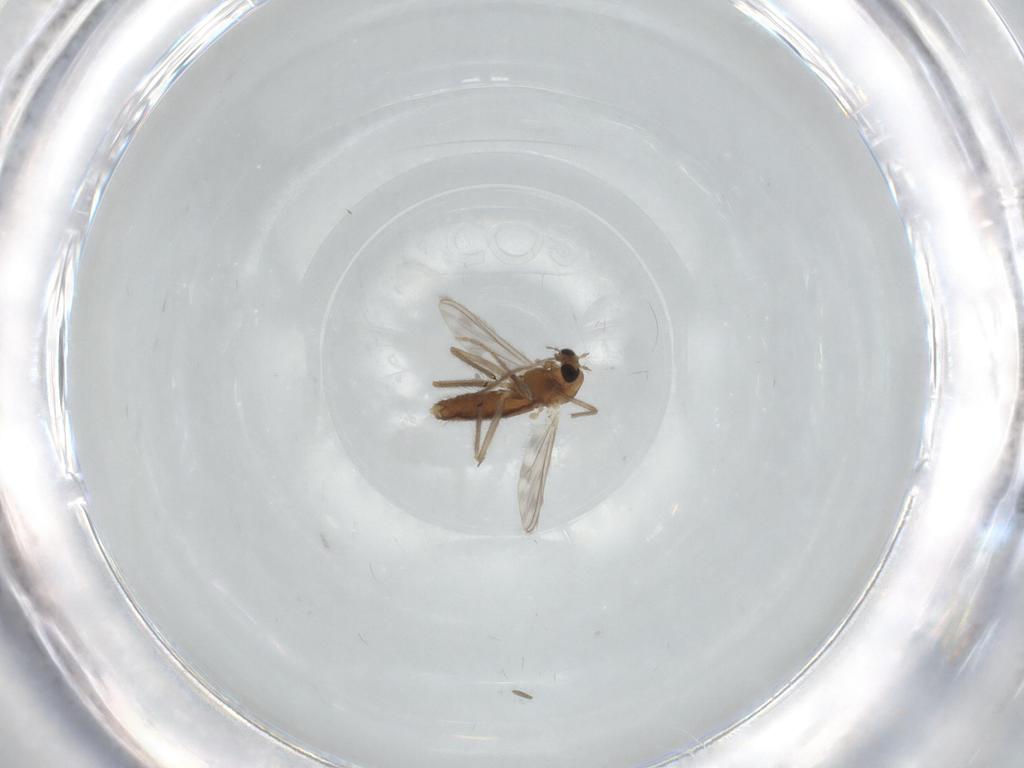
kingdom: Animalia
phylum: Arthropoda
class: Insecta
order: Diptera
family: Chironomidae
